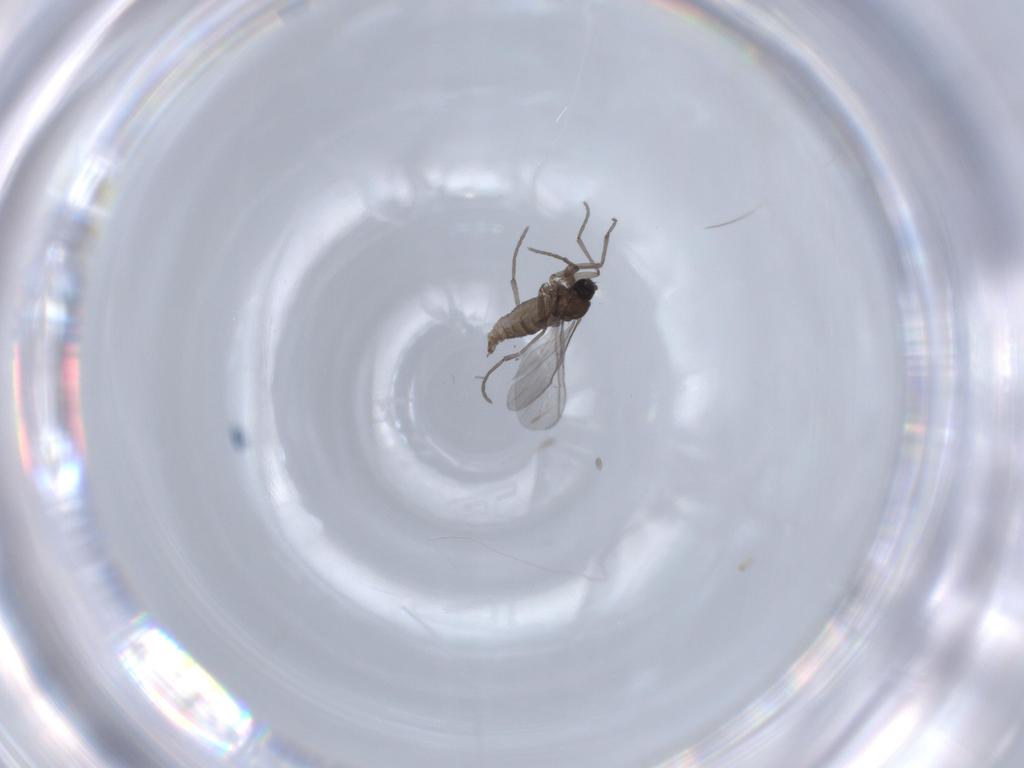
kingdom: Animalia
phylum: Arthropoda
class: Insecta
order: Diptera
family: Sciaridae
